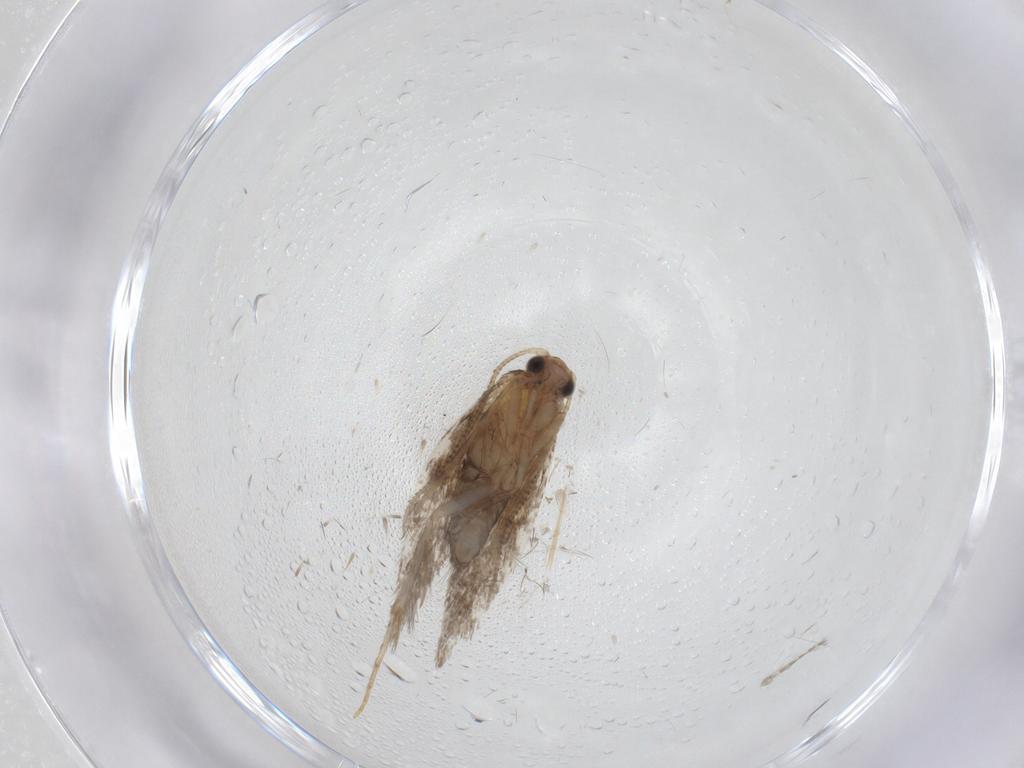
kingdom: Animalia
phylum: Arthropoda
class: Insecta
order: Lepidoptera
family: Tineidae
